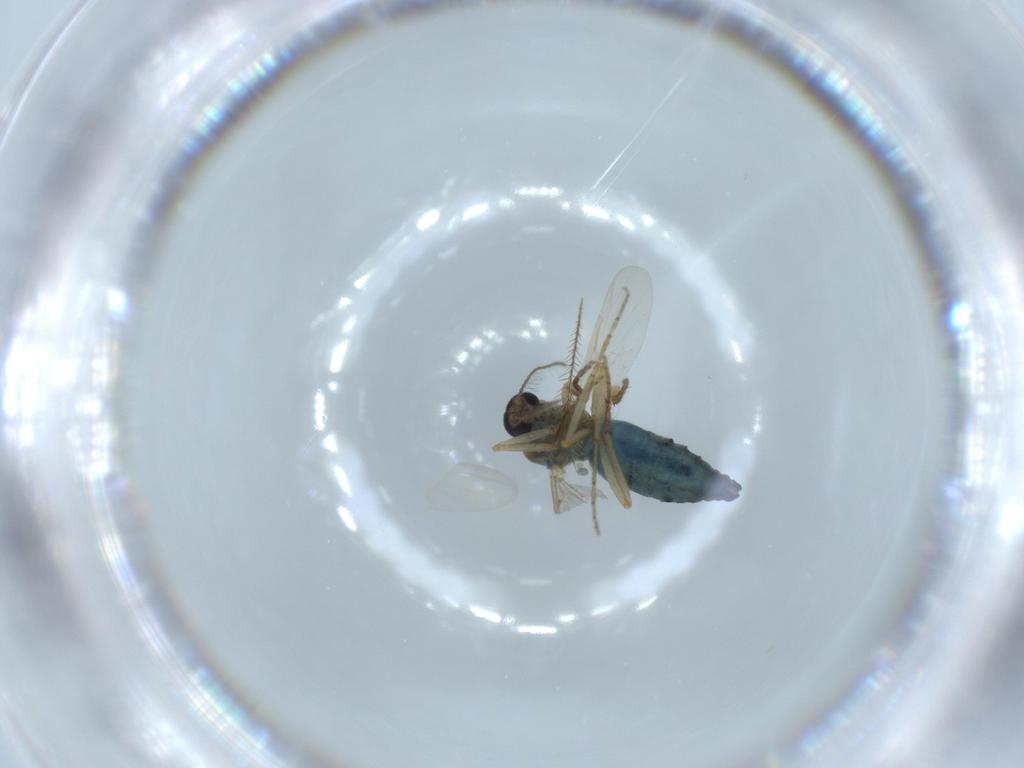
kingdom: Animalia
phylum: Arthropoda
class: Insecta
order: Diptera
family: Ceratopogonidae
